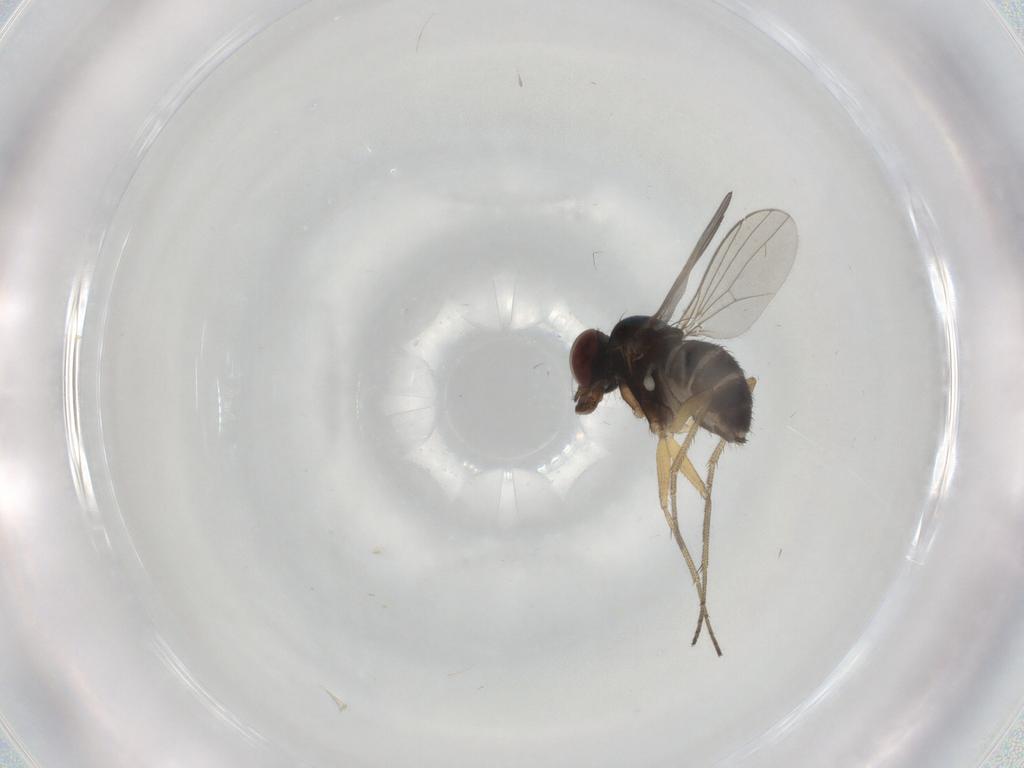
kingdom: Animalia
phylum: Arthropoda
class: Insecta
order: Diptera
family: Dolichopodidae
